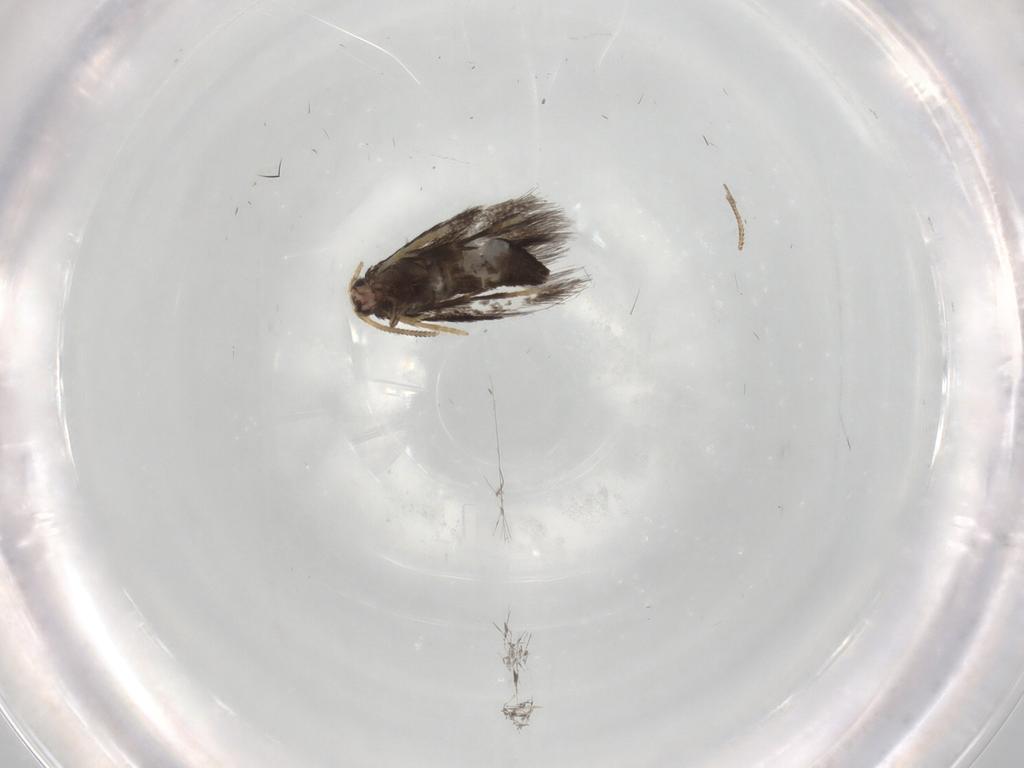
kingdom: Animalia
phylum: Arthropoda
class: Insecta
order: Lepidoptera
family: Nepticulidae
